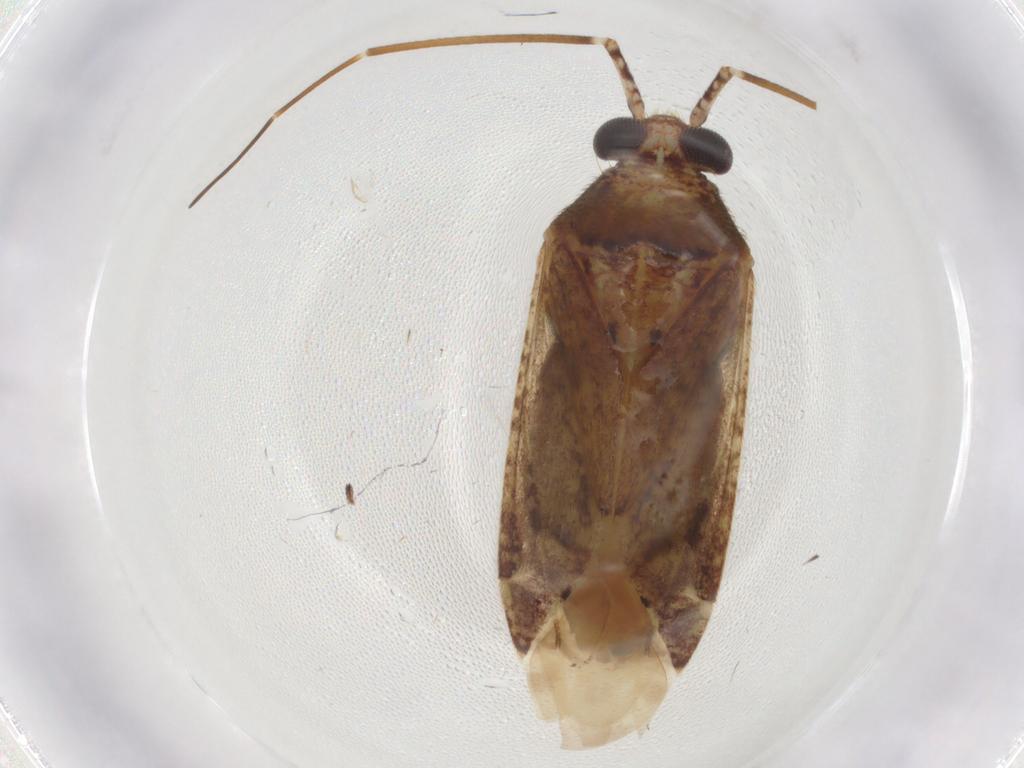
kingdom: Animalia
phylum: Arthropoda
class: Insecta
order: Hemiptera
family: Miridae
